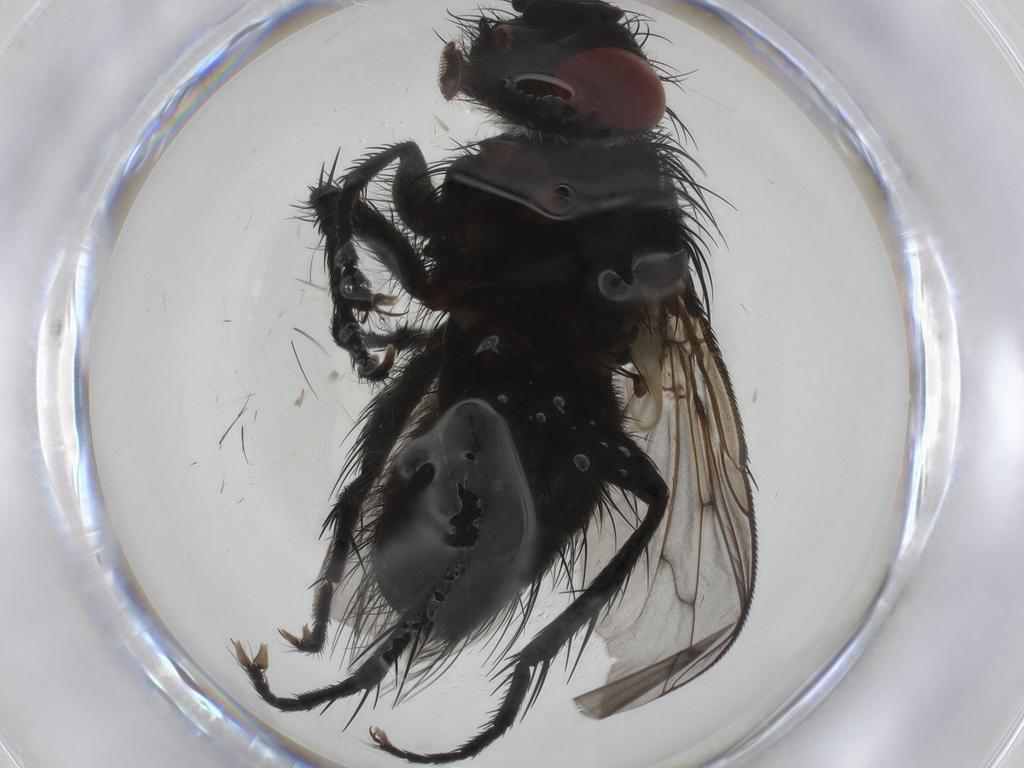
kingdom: Animalia
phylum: Arthropoda
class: Insecta
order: Diptera
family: Tachinidae
